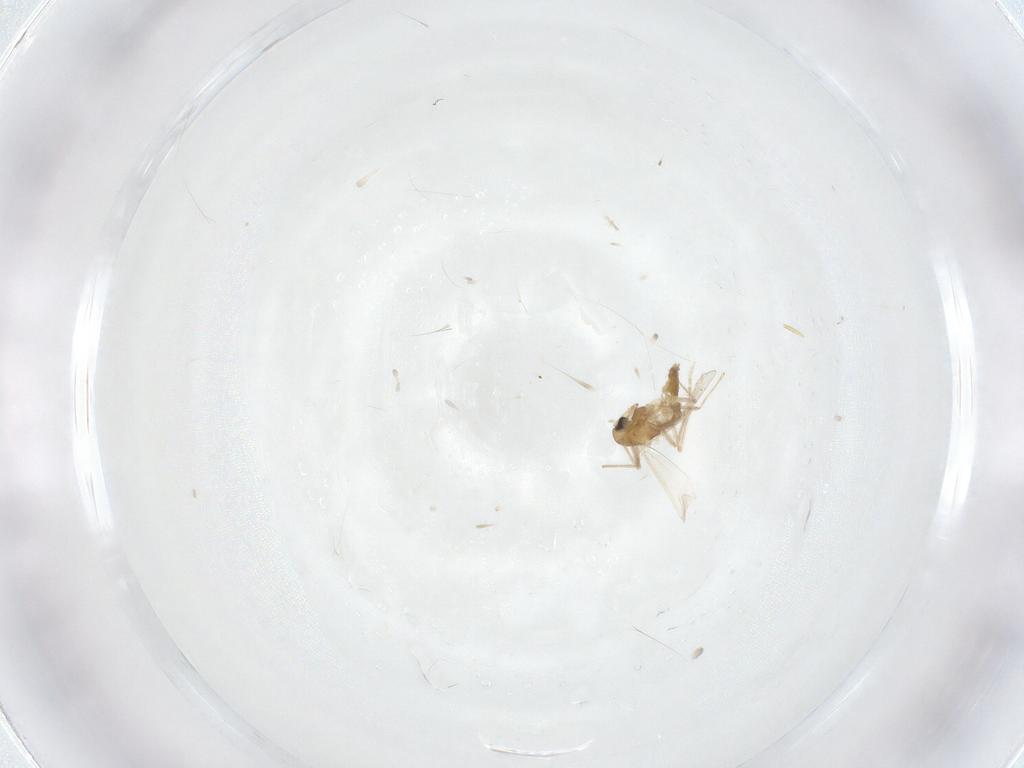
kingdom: Animalia
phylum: Arthropoda
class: Insecta
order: Diptera
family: Chironomidae
